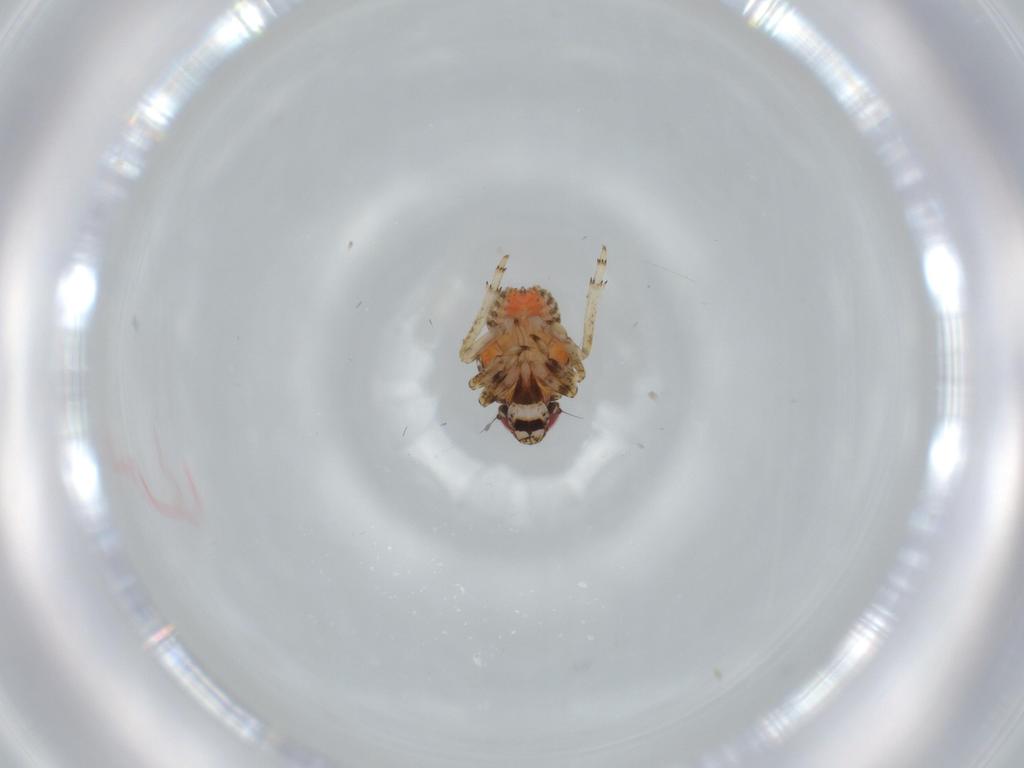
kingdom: Animalia
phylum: Arthropoda
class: Insecta
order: Hemiptera
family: Issidae
